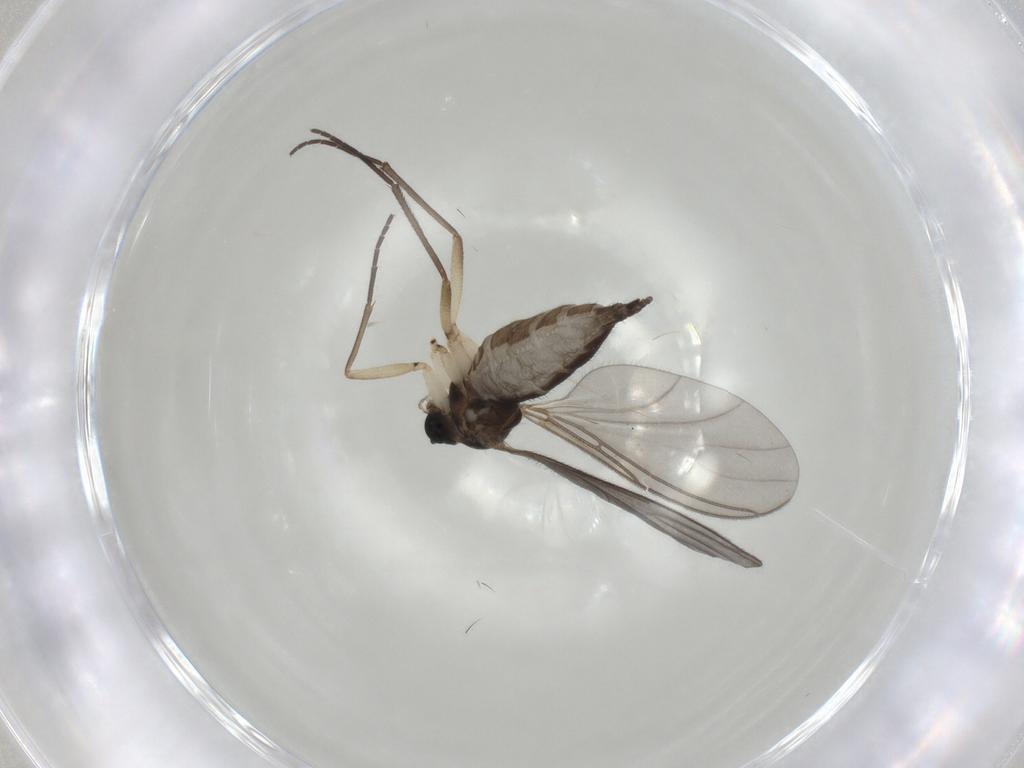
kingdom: Animalia
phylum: Arthropoda
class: Insecta
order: Diptera
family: Sciaridae
